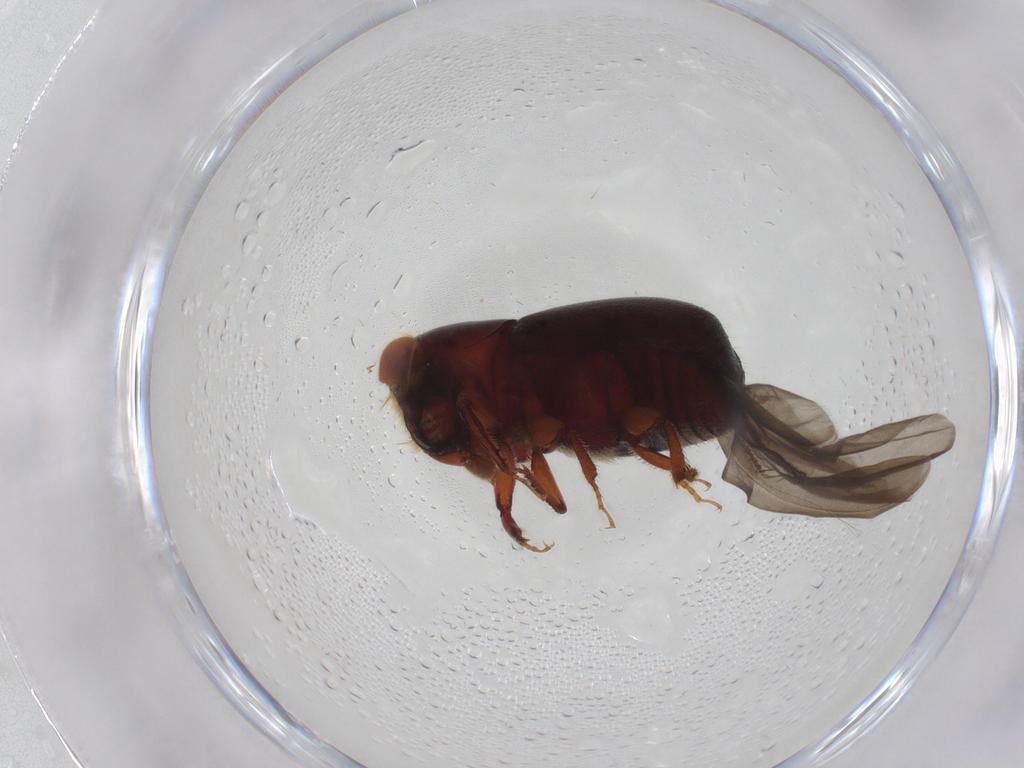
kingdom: Animalia
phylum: Arthropoda
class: Insecta
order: Coleoptera
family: Curculionidae
